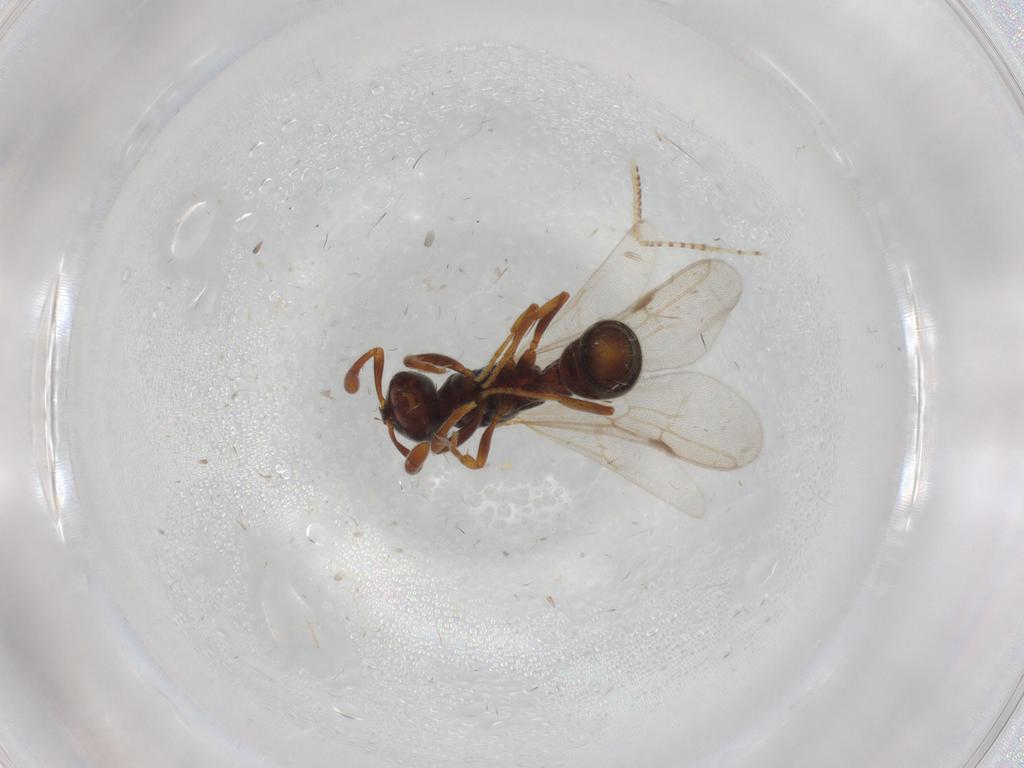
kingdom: Animalia
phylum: Arthropoda
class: Insecta
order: Hymenoptera
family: Formicidae
